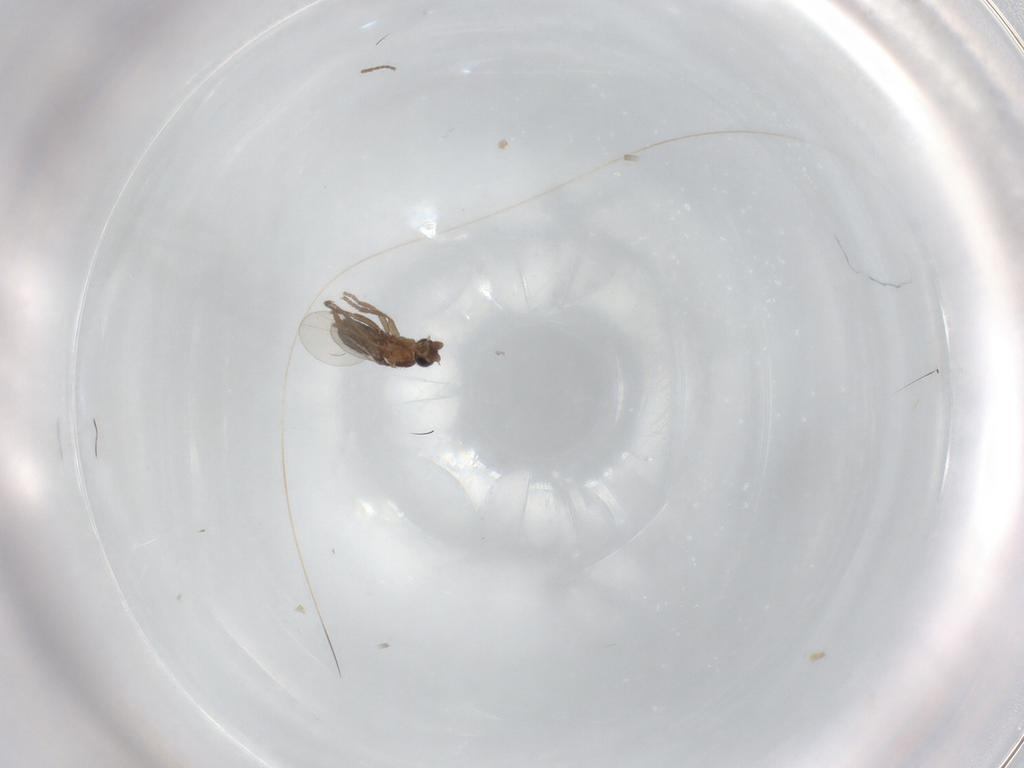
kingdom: Animalia
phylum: Arthropoda
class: Insecta
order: Diptera
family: Phoridae
